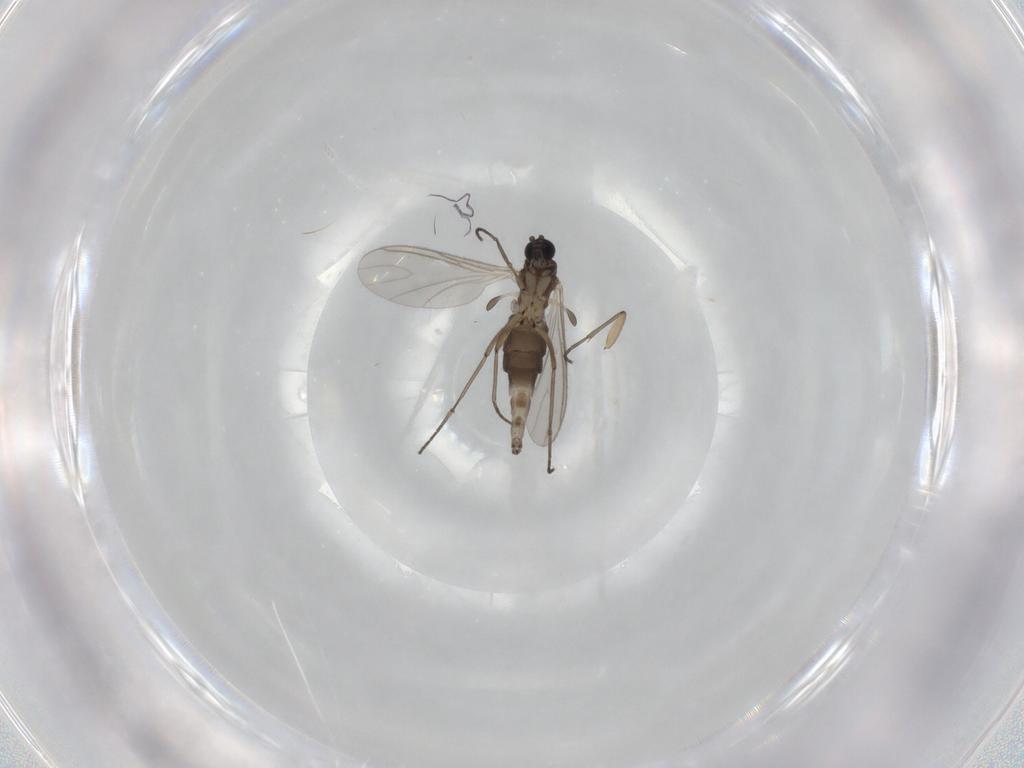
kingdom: Animalia
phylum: Arthropoda
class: Insecta
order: Diptera
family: Sciaridae
